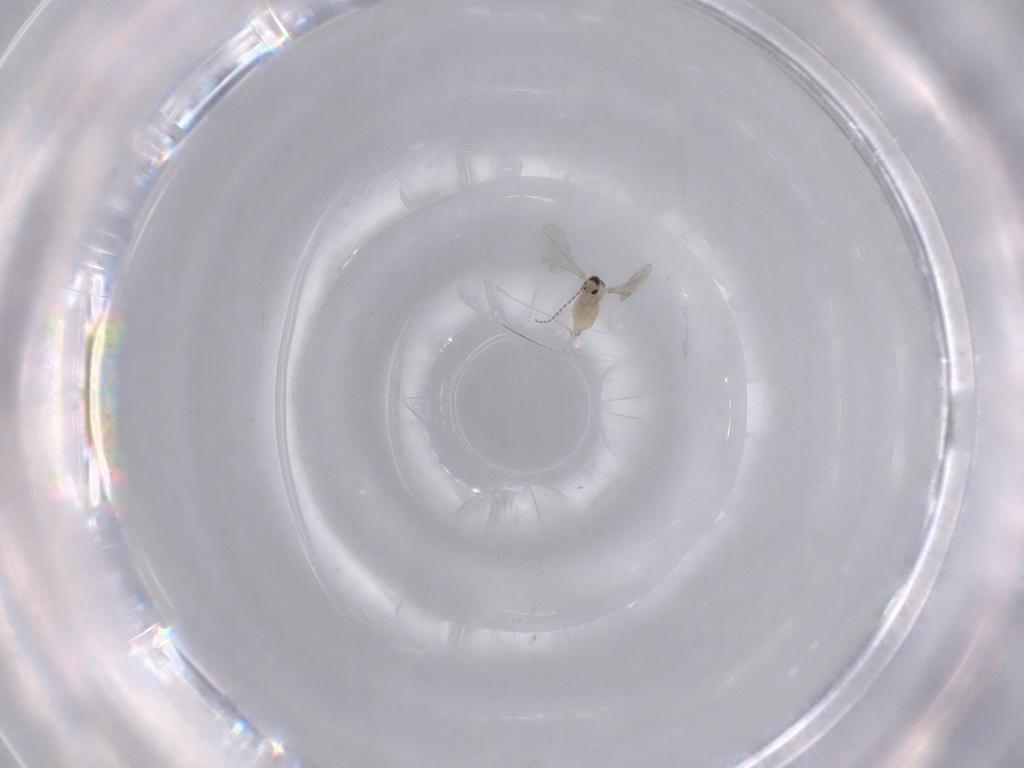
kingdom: Animalia
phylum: Arthropoda
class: Insecta
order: Diptera
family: Cecidomyiidae
